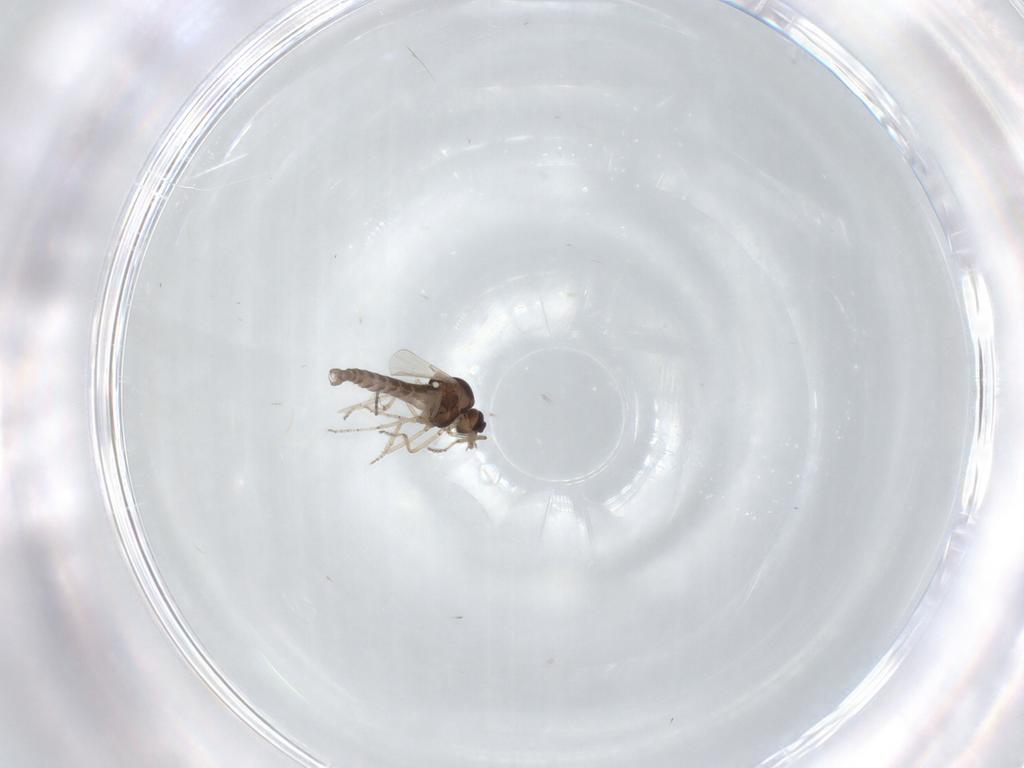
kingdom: Animalia
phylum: Arthropoda
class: Insecta
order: Diptera
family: Ceratopogonidae
